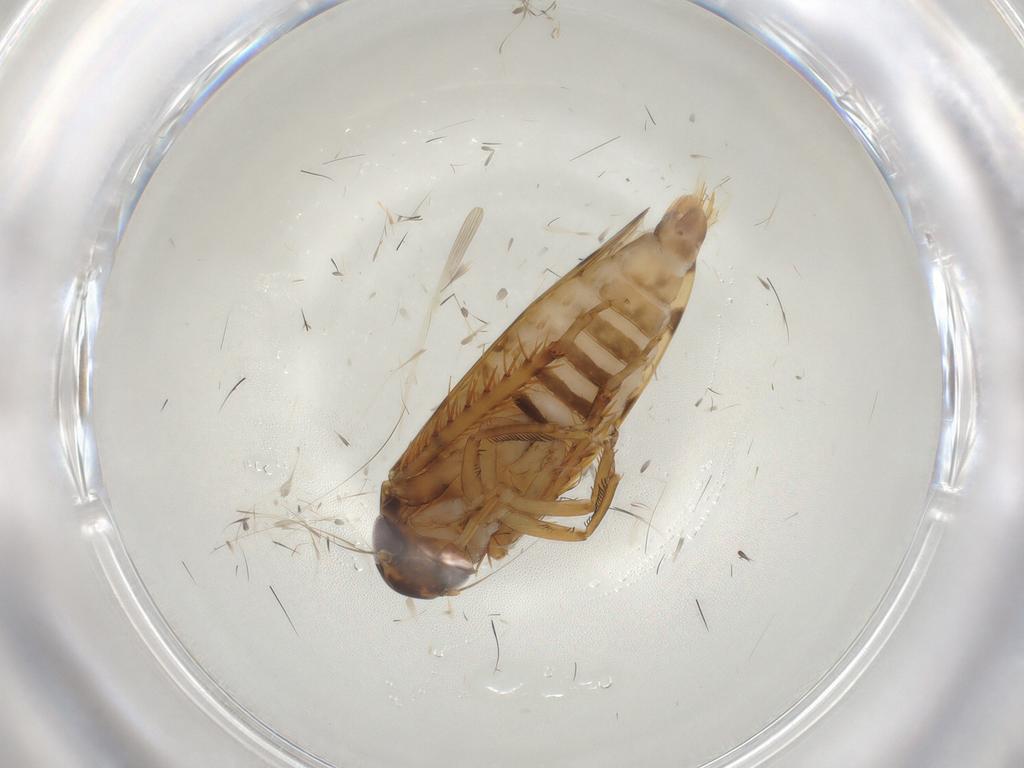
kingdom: Animalia
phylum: Arthropoda
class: Insecta
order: Hemiptera
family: Cicadellidae
